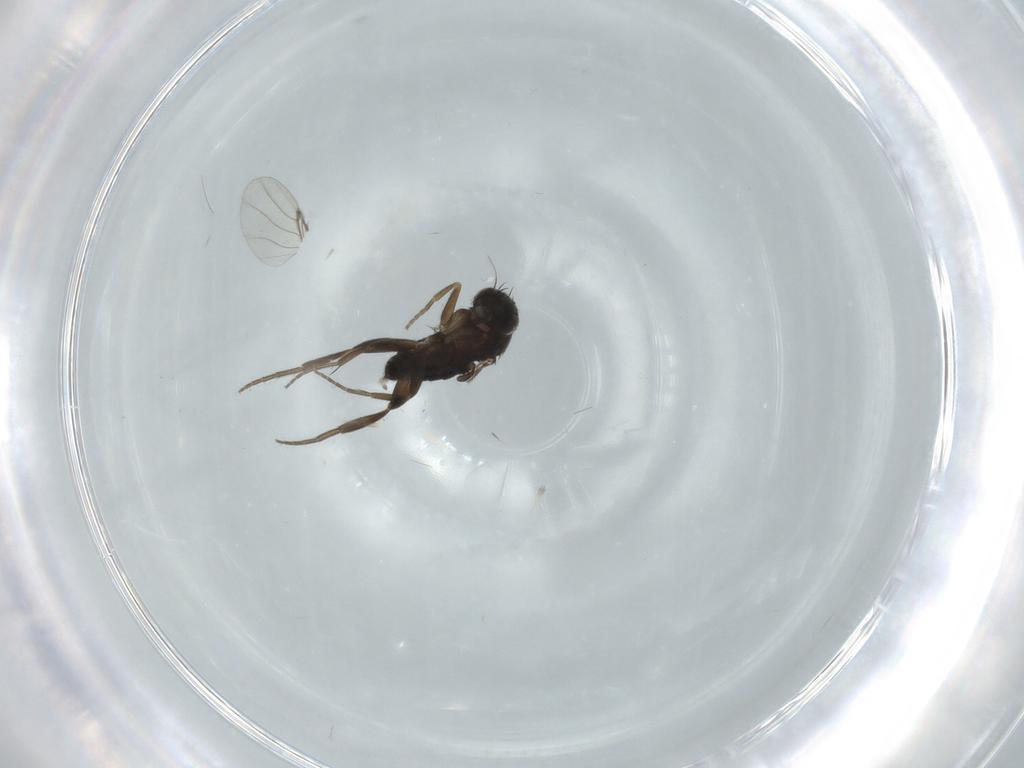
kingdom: Animalia
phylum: Arthropoda
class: Insecta
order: Diptera
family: Phoridae
